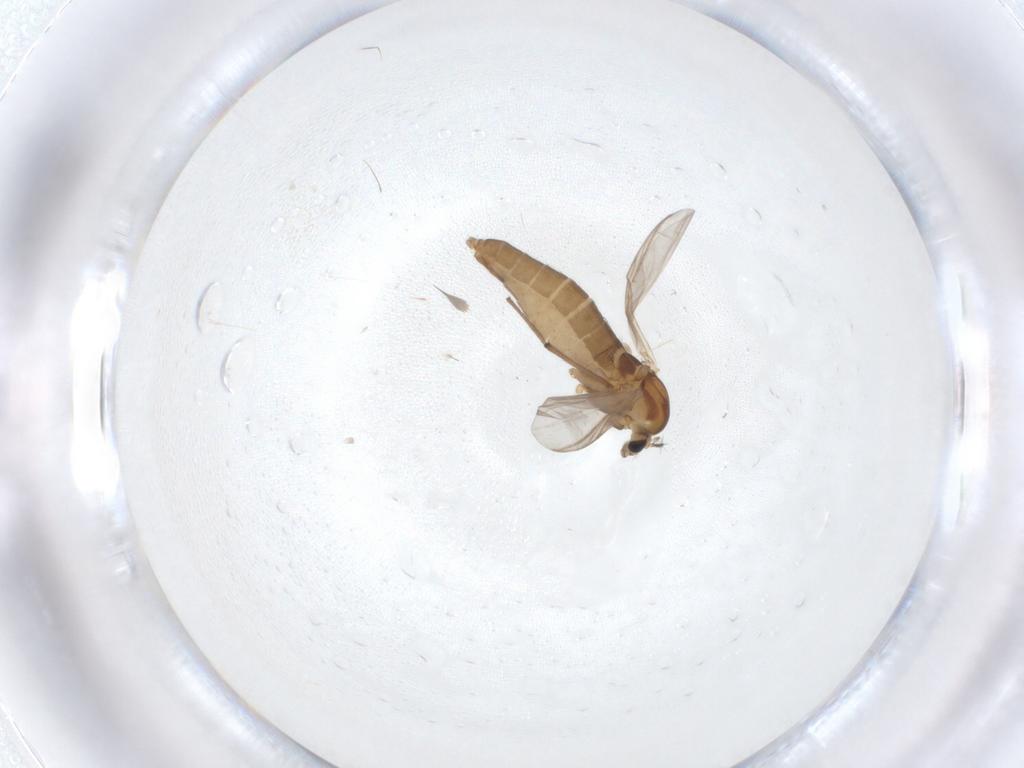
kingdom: Animalia
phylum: Arthropoda
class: Insecta
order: Diptera
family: Chironomidae
